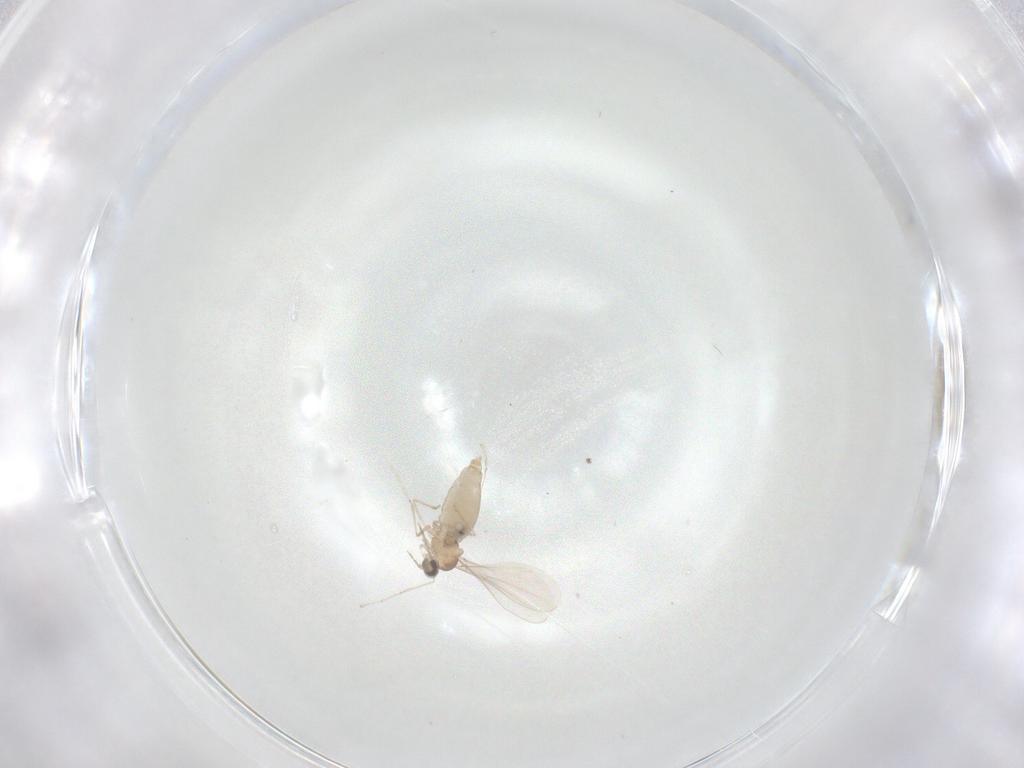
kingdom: Animalia
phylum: Arthropoda
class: Insecta
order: Diptera
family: Cecidomyiidae
